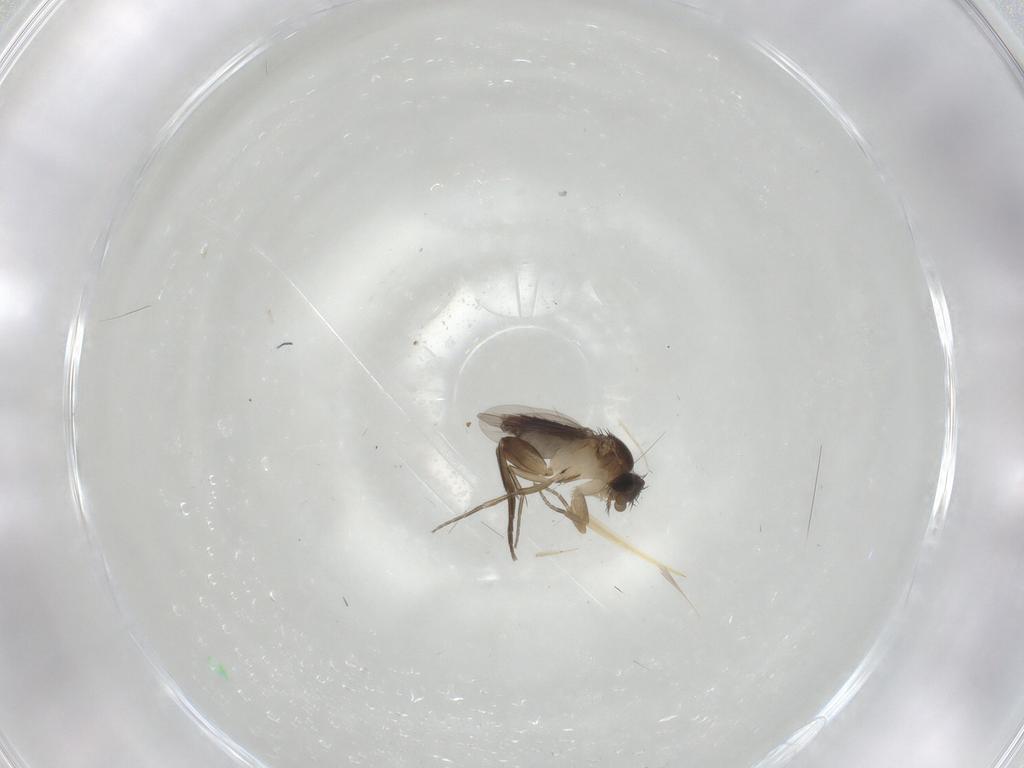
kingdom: Animalia
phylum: Arthropoda
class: Insecta
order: Diptera
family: Phoridae
